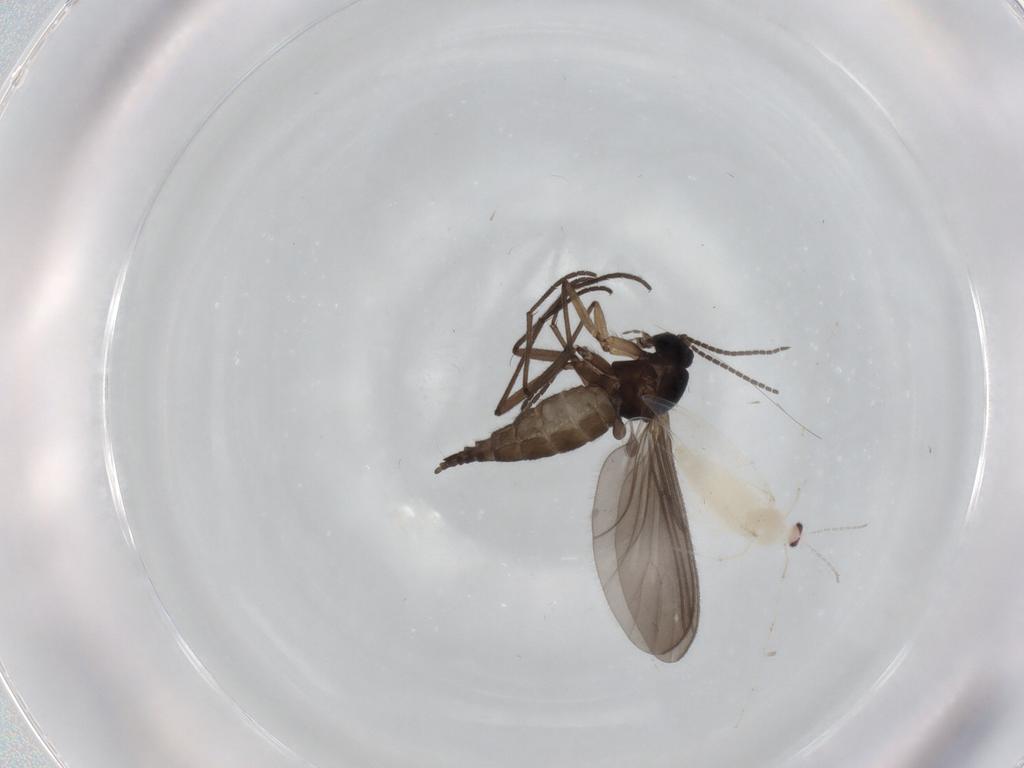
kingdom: Animalia
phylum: Arthropoda
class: Insecta
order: Diptera
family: Cecidomyiidae
